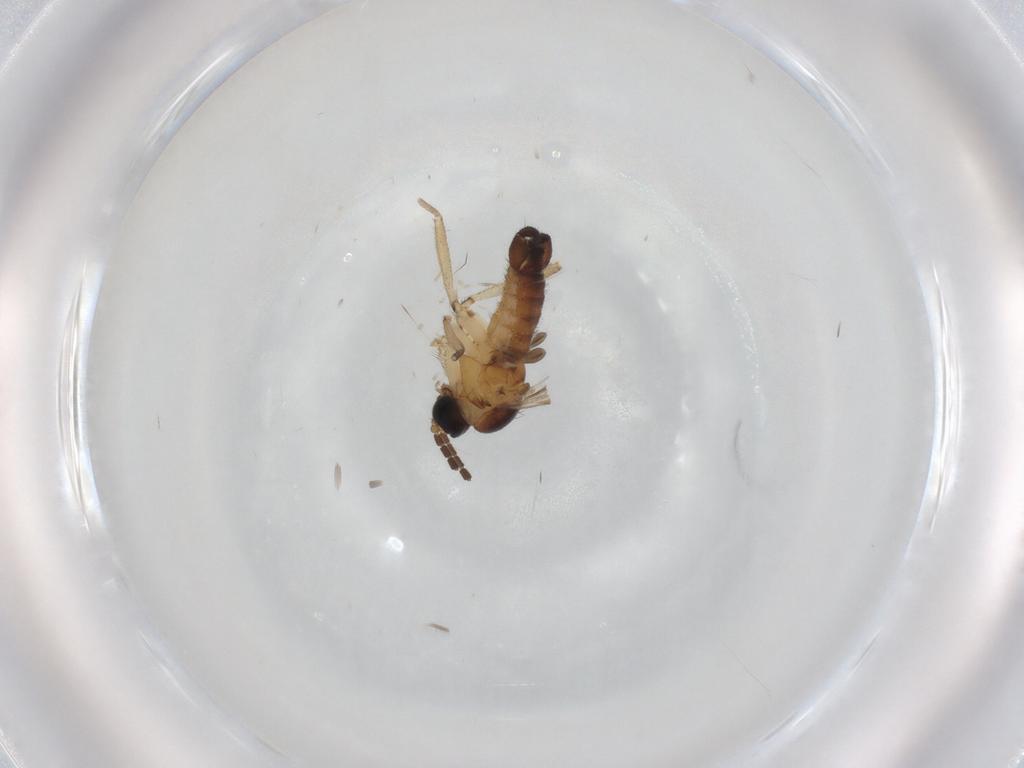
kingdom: Animalia
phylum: Arthropoda
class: Insecta
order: Diptera
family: Sciaridae
